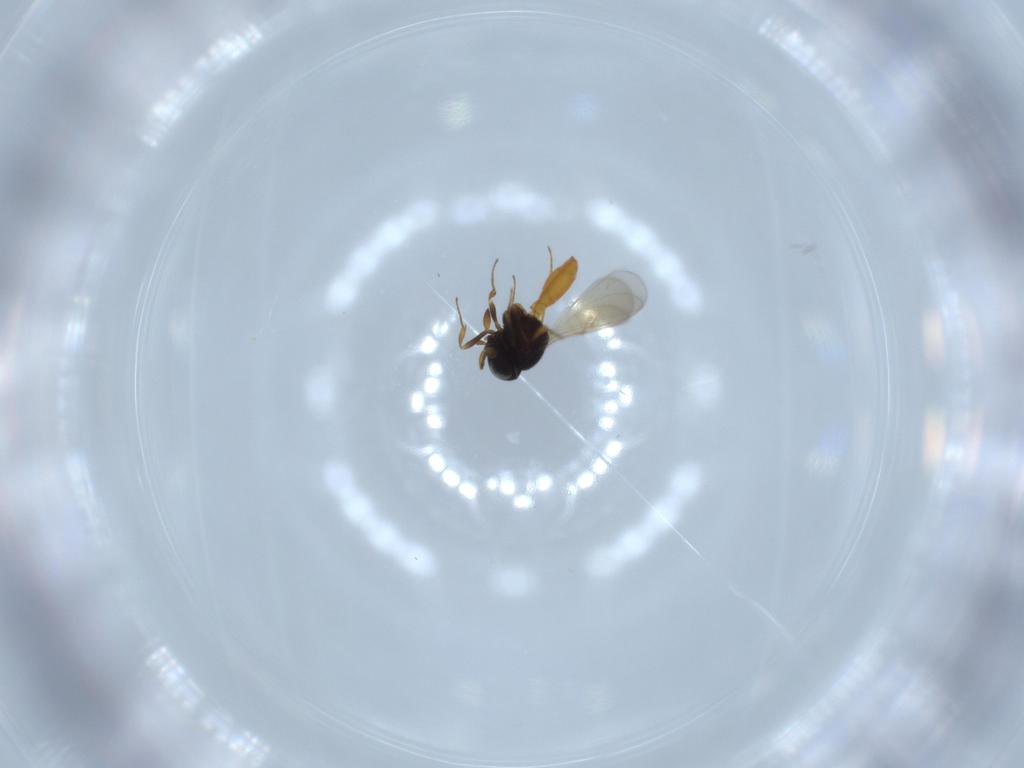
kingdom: Animalia
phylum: Arthropoda
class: Insecta
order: Hymenoptera
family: Scelionidae
